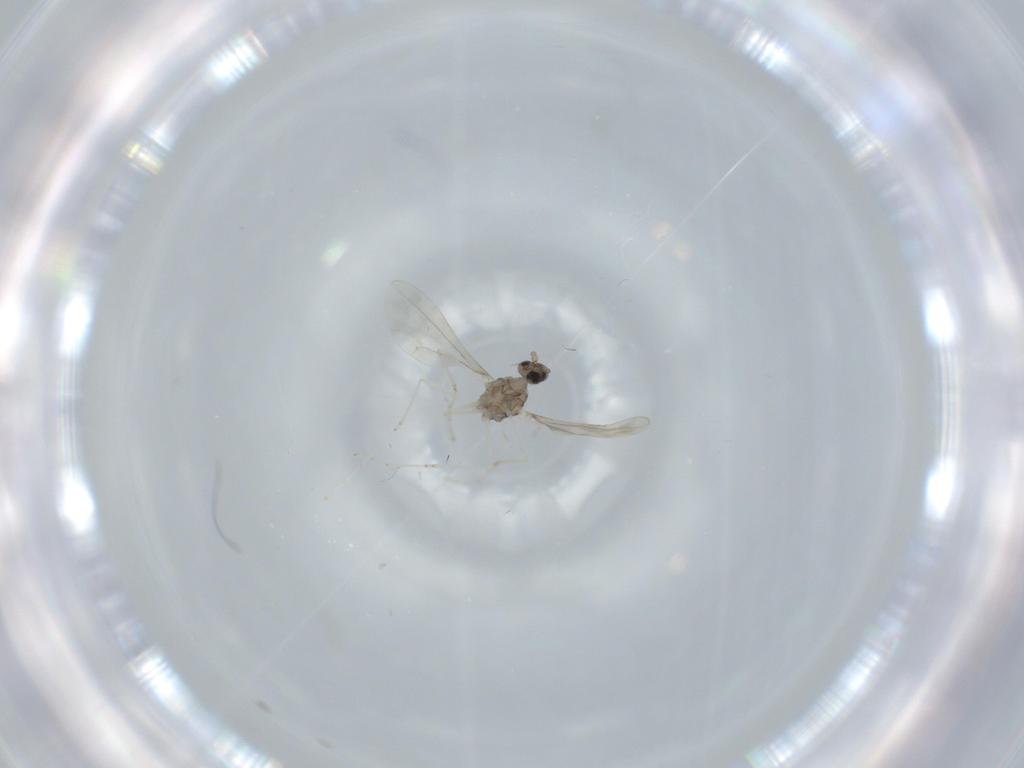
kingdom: Animalia
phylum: Arthropoda
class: Insecta
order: Diptera
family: Cecidomyiidae
